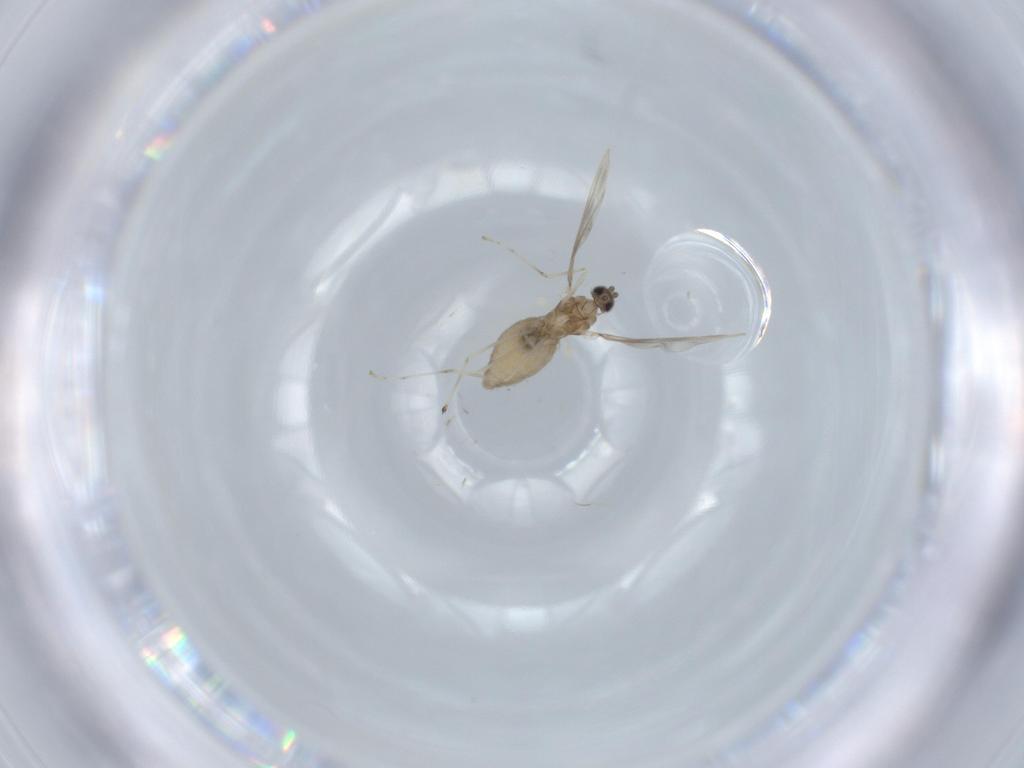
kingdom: Animalia
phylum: Arthropoda
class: Insecta
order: Diptera
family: Cecidomyiidae
